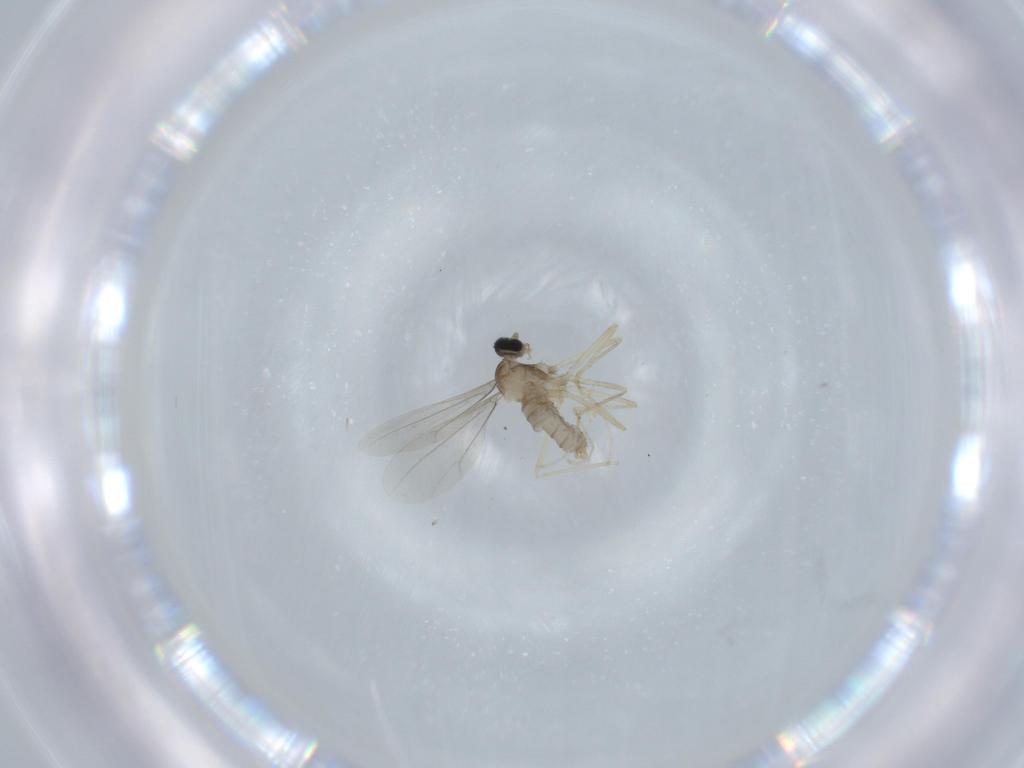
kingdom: Animalia
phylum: Arthropoda
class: Insecta
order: Diptera
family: Cecidomyiidae
